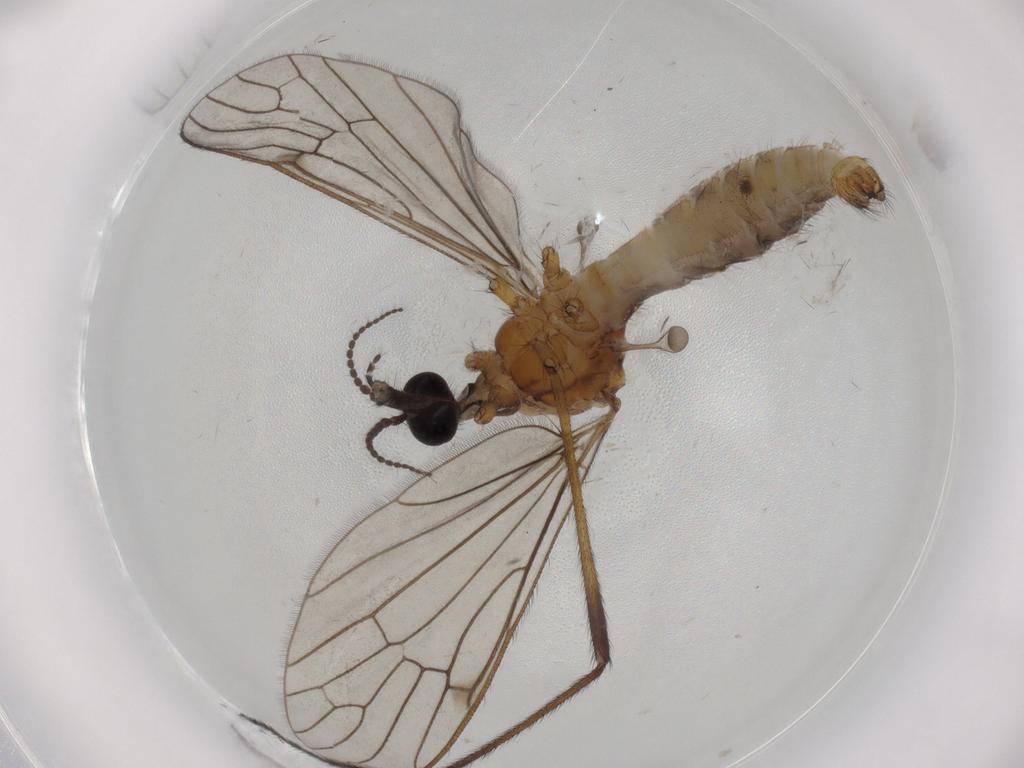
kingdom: Animalia
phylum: Arthropoda
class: Insecta
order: Diptera
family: Limoniidae
